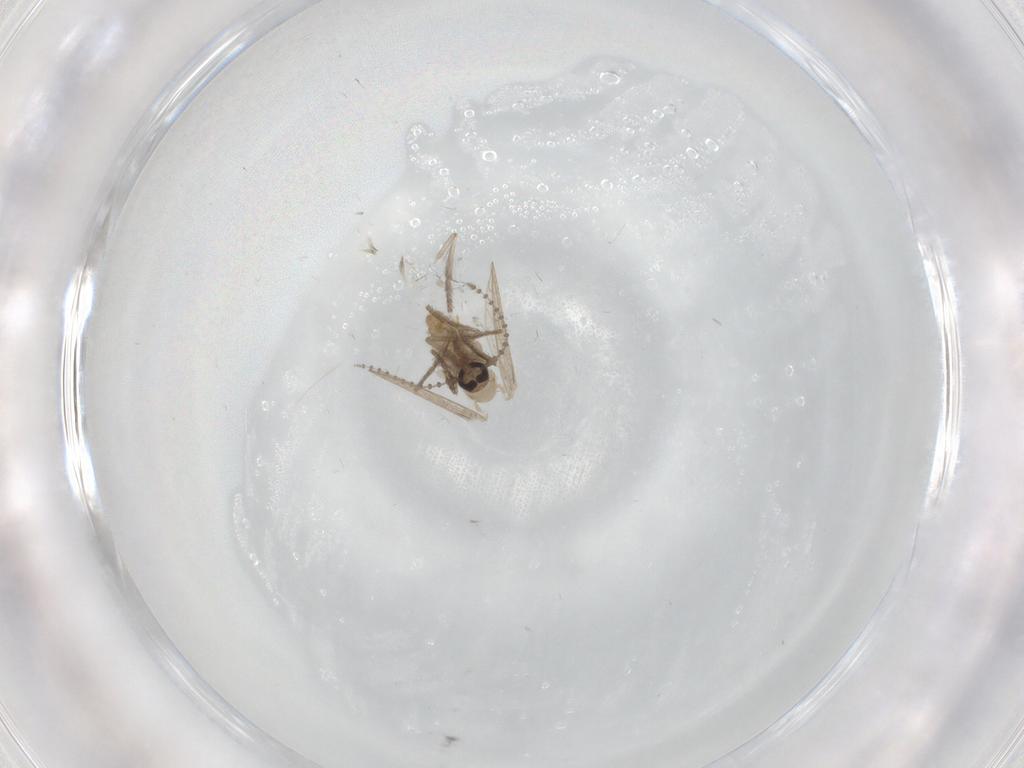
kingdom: Animalia
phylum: Arthropoda
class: Insecta
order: Diptera
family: Psychodidae
